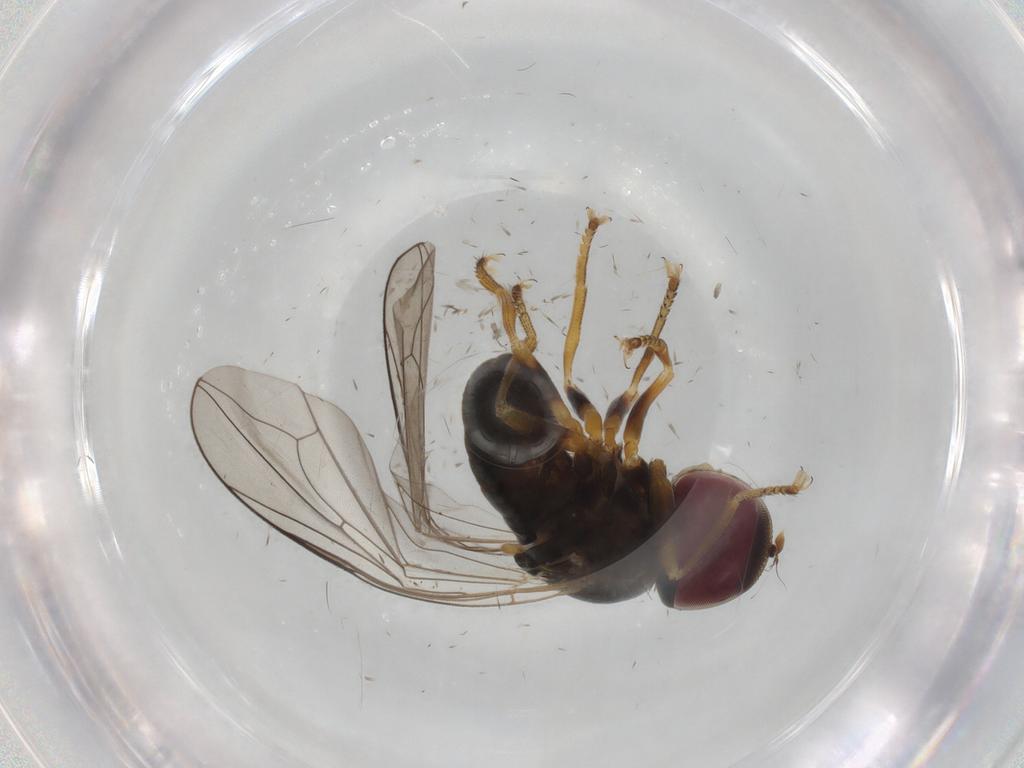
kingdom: Animalia
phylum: Arthropoda
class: Insecta
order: Diptera
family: Pipunculidae
